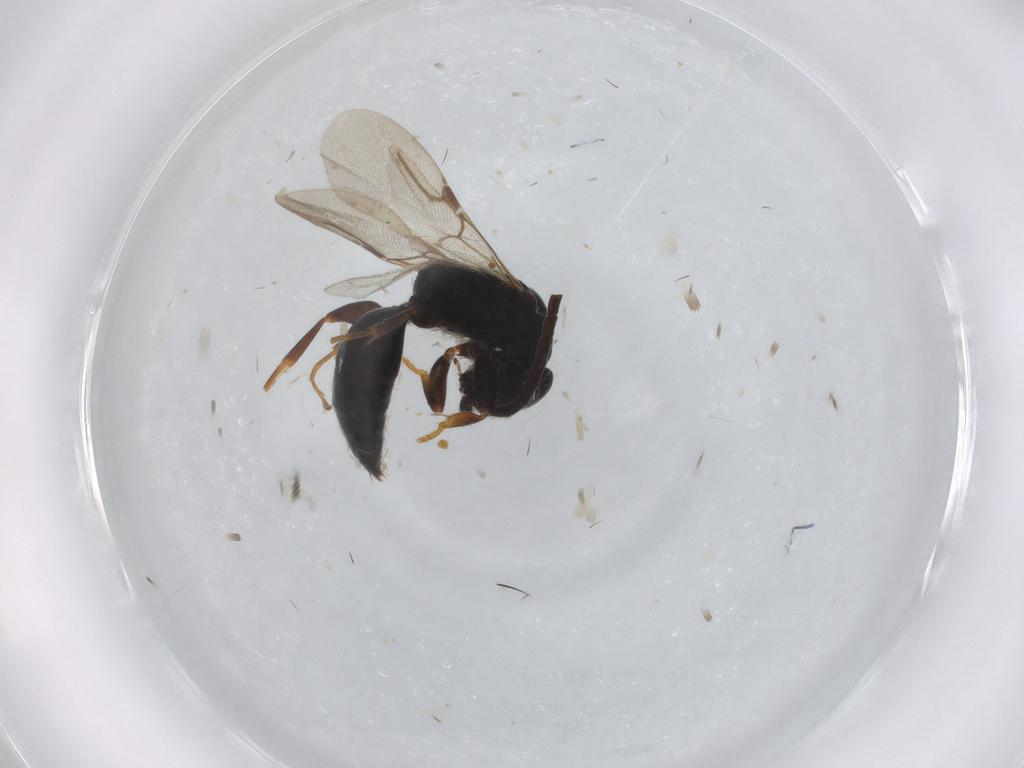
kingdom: Animalia
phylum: Arthropoda
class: Insecta
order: Hymenoptera
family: Bethylidae
